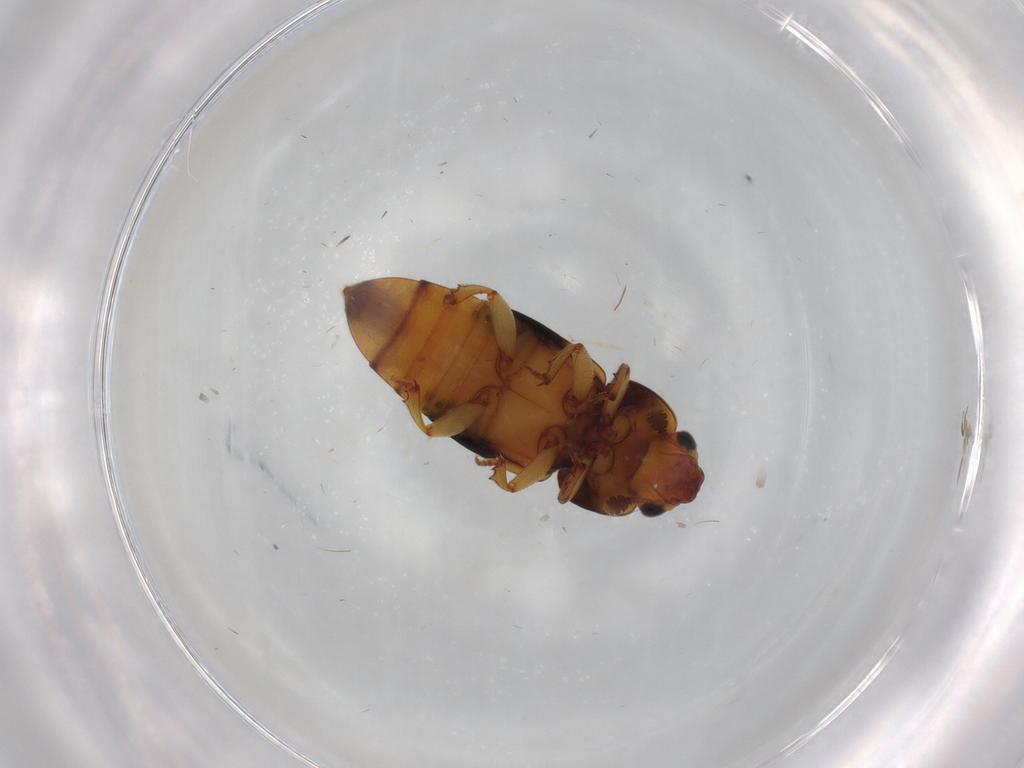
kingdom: Animalia
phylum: Arthropoda
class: Insecta
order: Coleoptera
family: Nitidulidae
